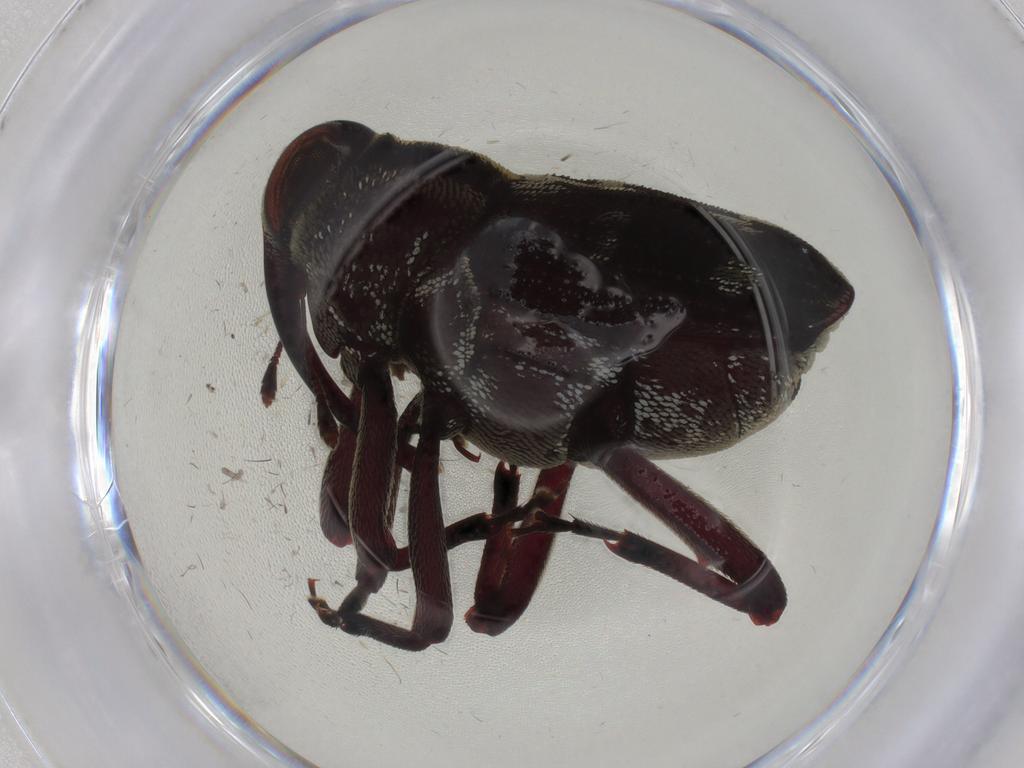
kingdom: Animalia
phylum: Arthropoda
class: Insecta
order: Coleoptera
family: Curculionidae
